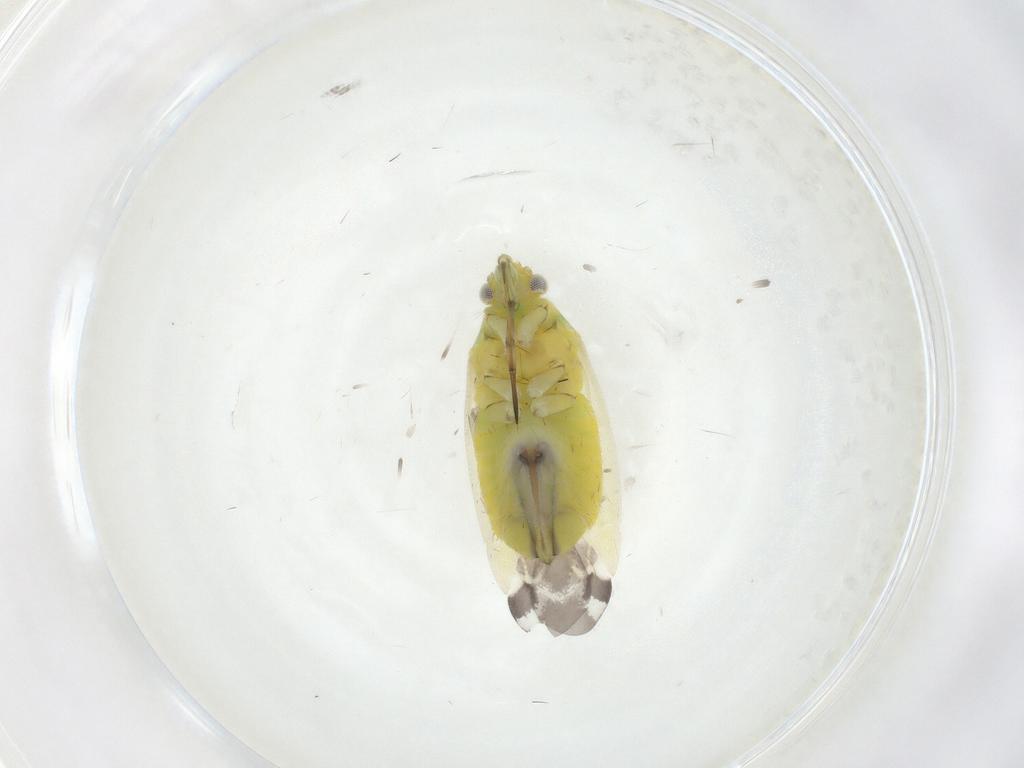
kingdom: Animalia
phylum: Arthropoda
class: Insecta
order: Hemiptera
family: Miridae
